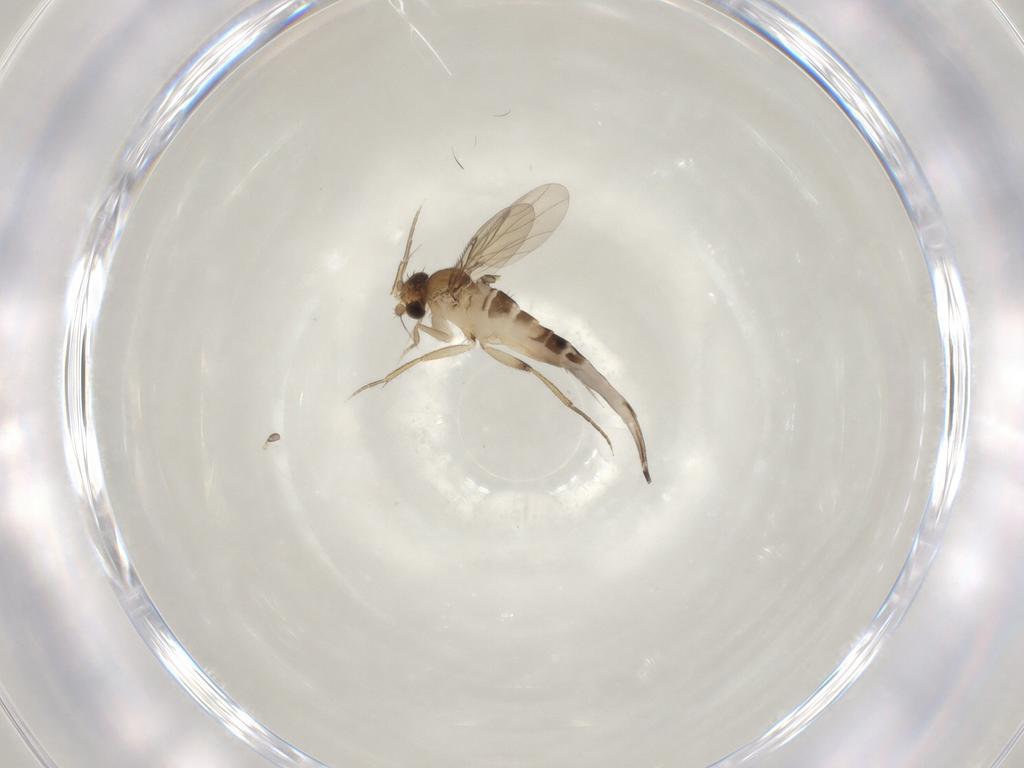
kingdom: Animalia
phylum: Arthropoda
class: Insecta
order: Diptera
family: Phoridae
